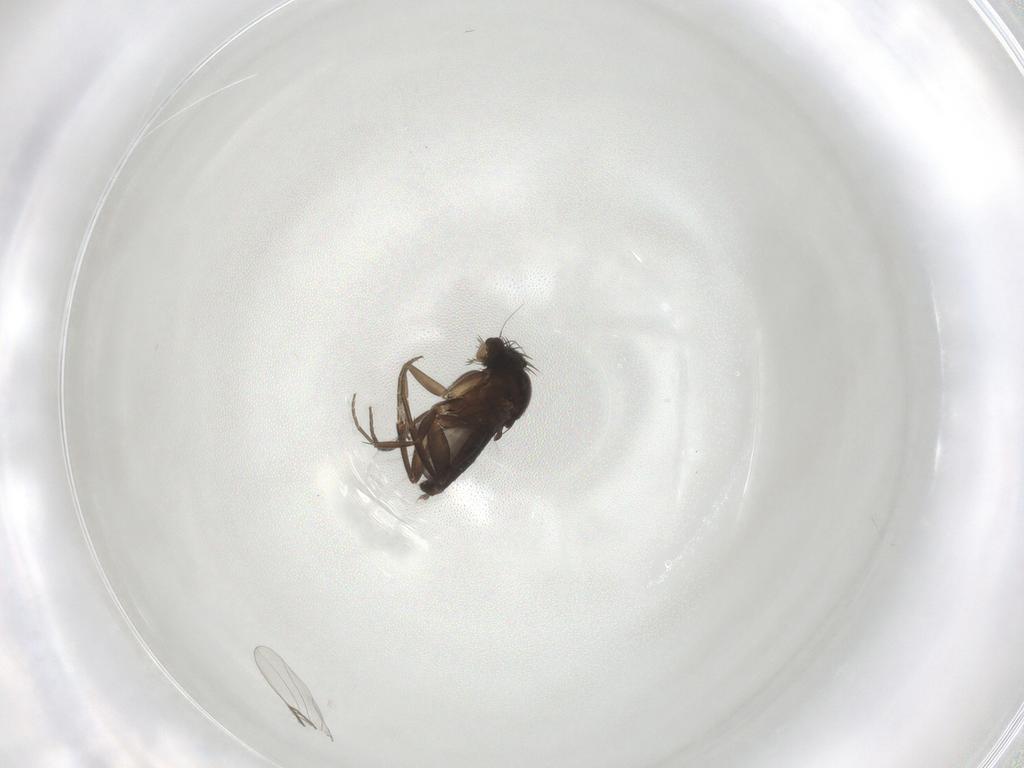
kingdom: Animalia
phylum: Arthropoda
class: Insecta
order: Diptera
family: Phoridae
